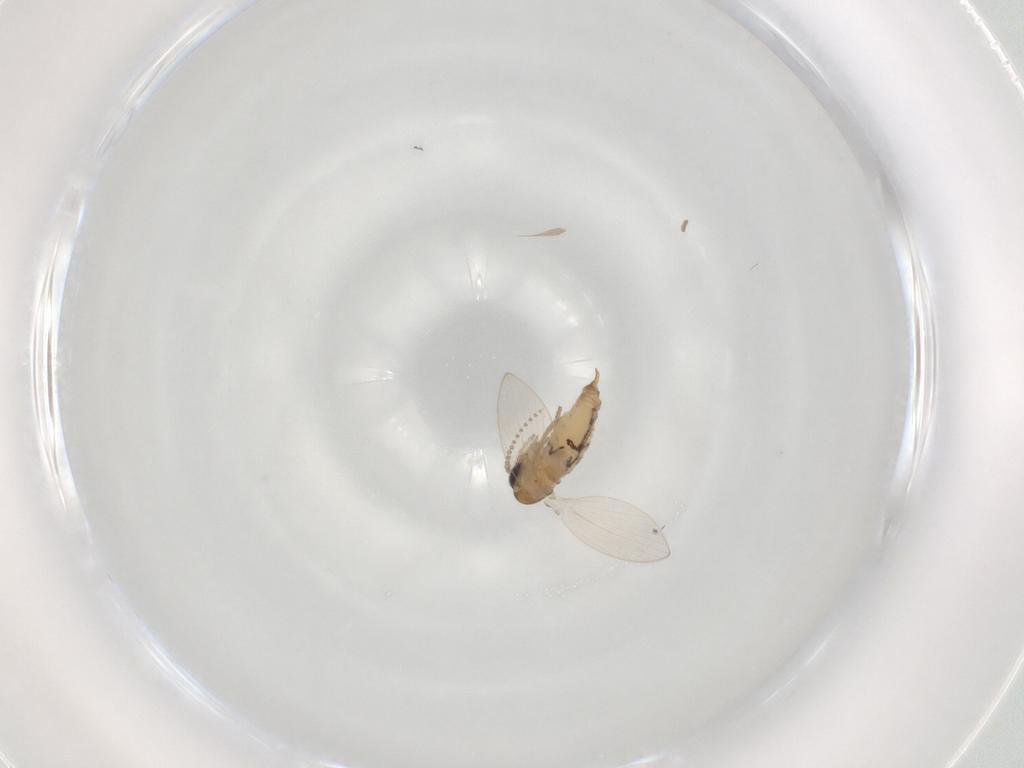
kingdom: Animalia
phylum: Arthropoda
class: Insecta
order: Diptera
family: Psychodidae
